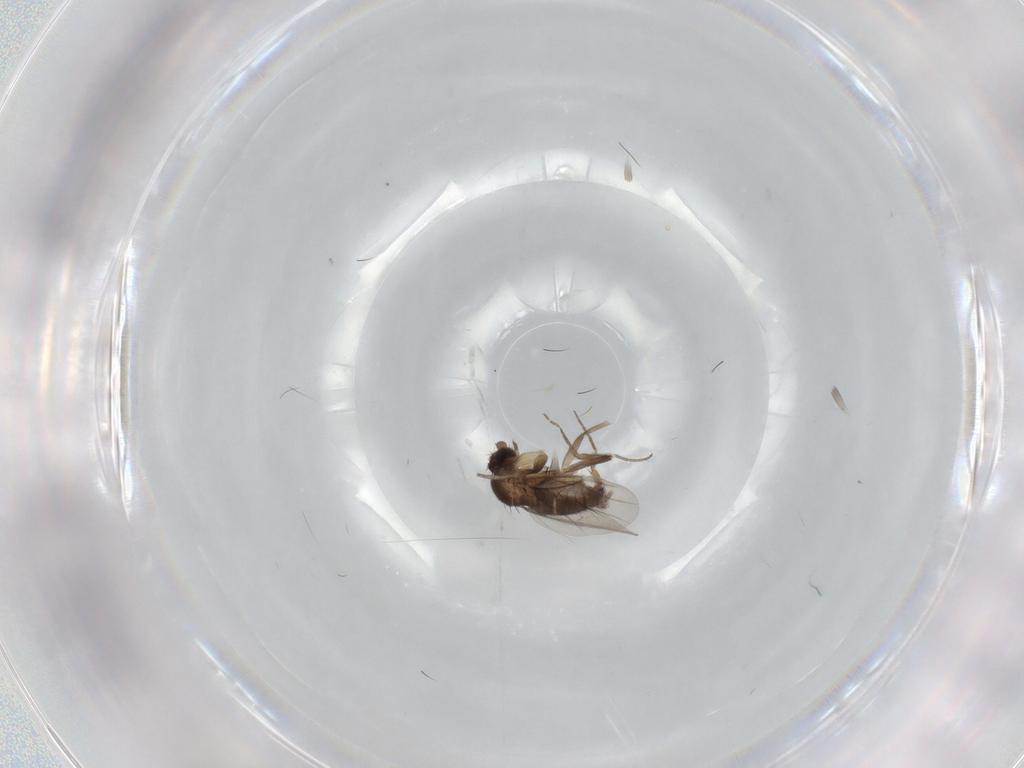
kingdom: Animalia
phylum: Arthropoda
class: Insecta
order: Diptera
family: Phoridae
